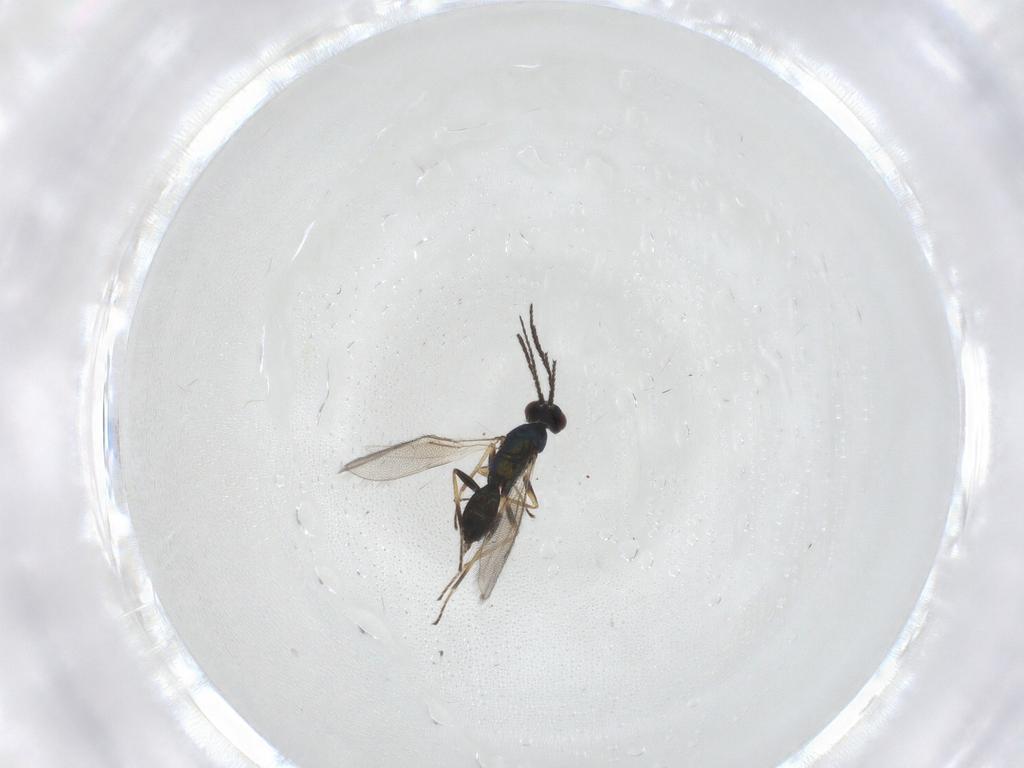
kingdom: Animalia
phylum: Arthropoda
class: Insecta
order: Hymenoptera
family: Eulophidae
